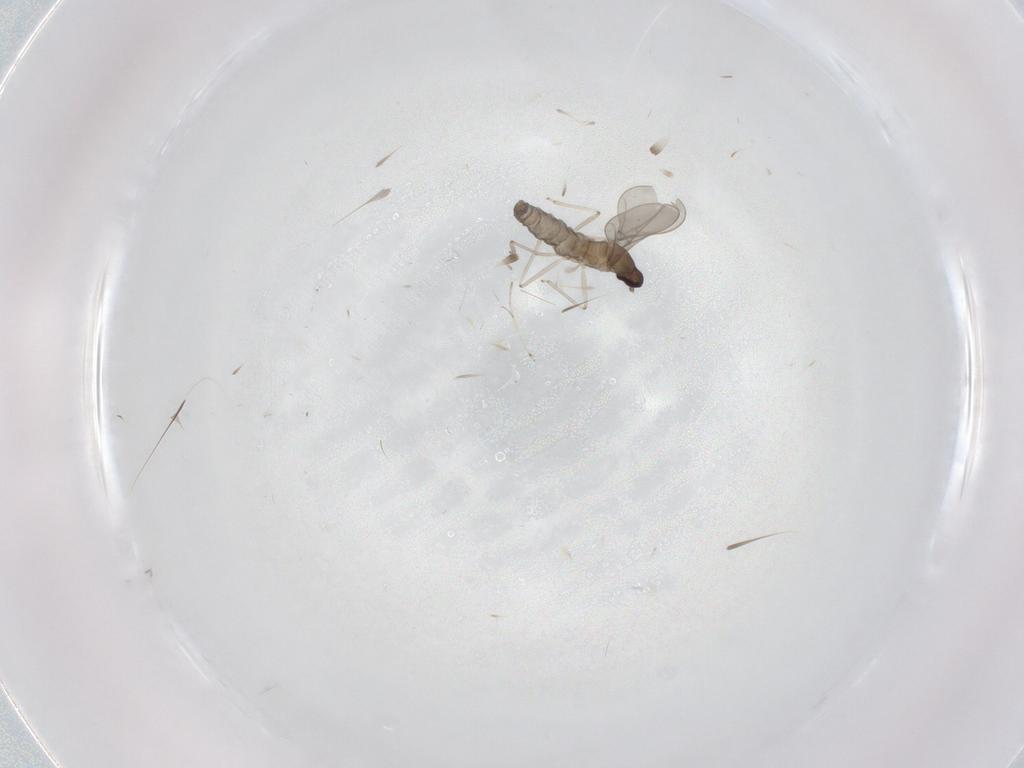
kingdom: Animalia
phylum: Arthropoda
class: Insecta
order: Diptera
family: Cecidomyiidae
